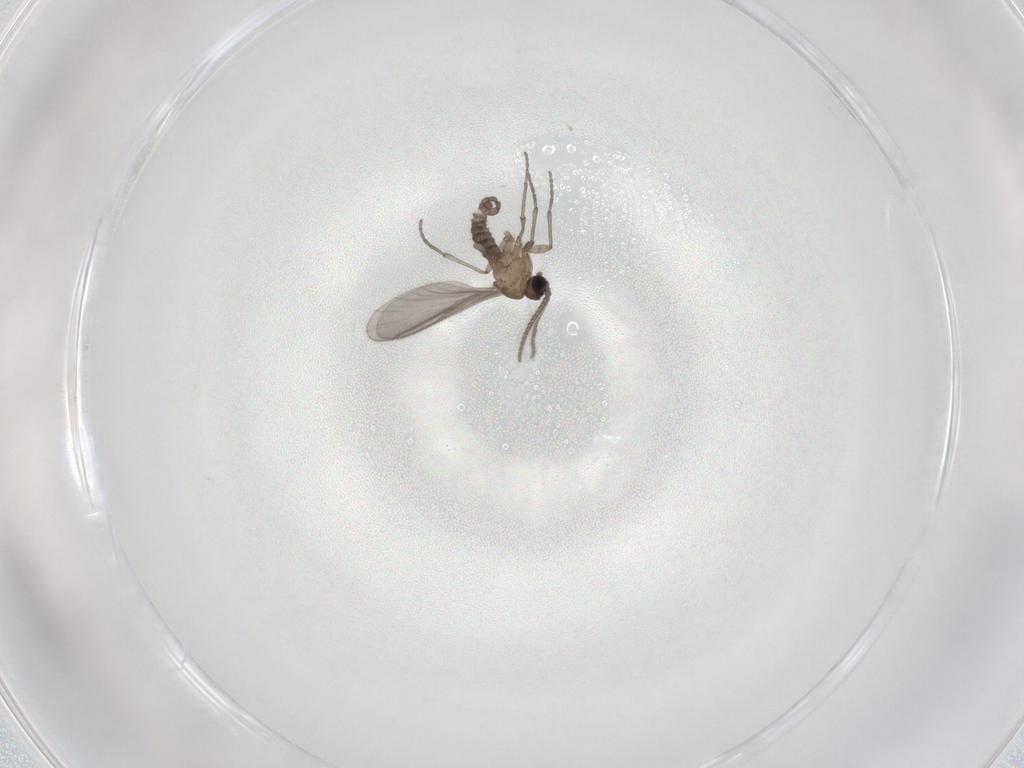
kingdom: Animalia
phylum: Arthropoda
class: Insecta
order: Diptera
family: Sciaridae
